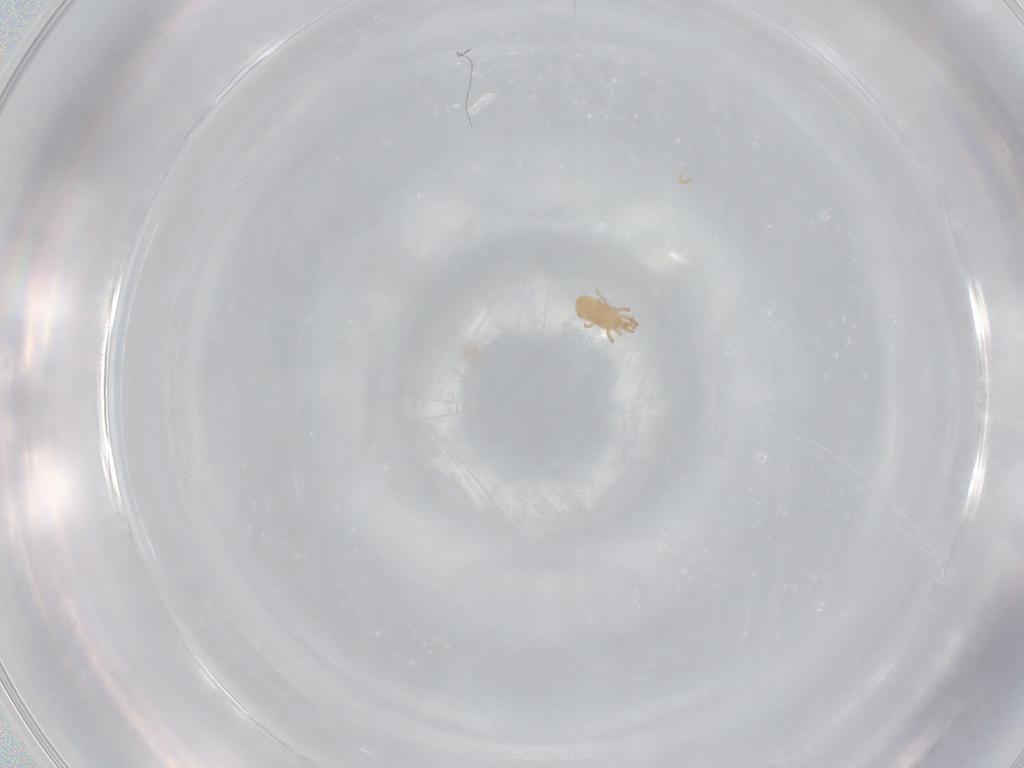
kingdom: Animalia
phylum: Arthropoda
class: Arachnida
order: Mesostigmata
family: Ascidae
